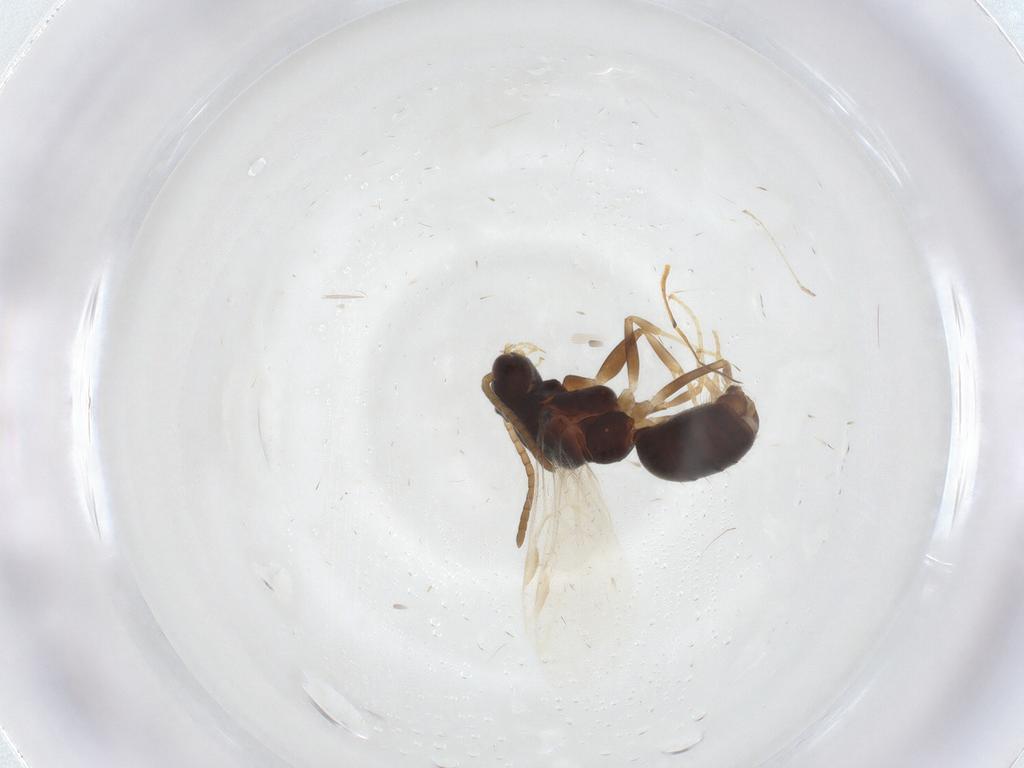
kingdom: Animalia
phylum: Arthropoda
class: Insecta
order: Hymenoptera
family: Formicidae
